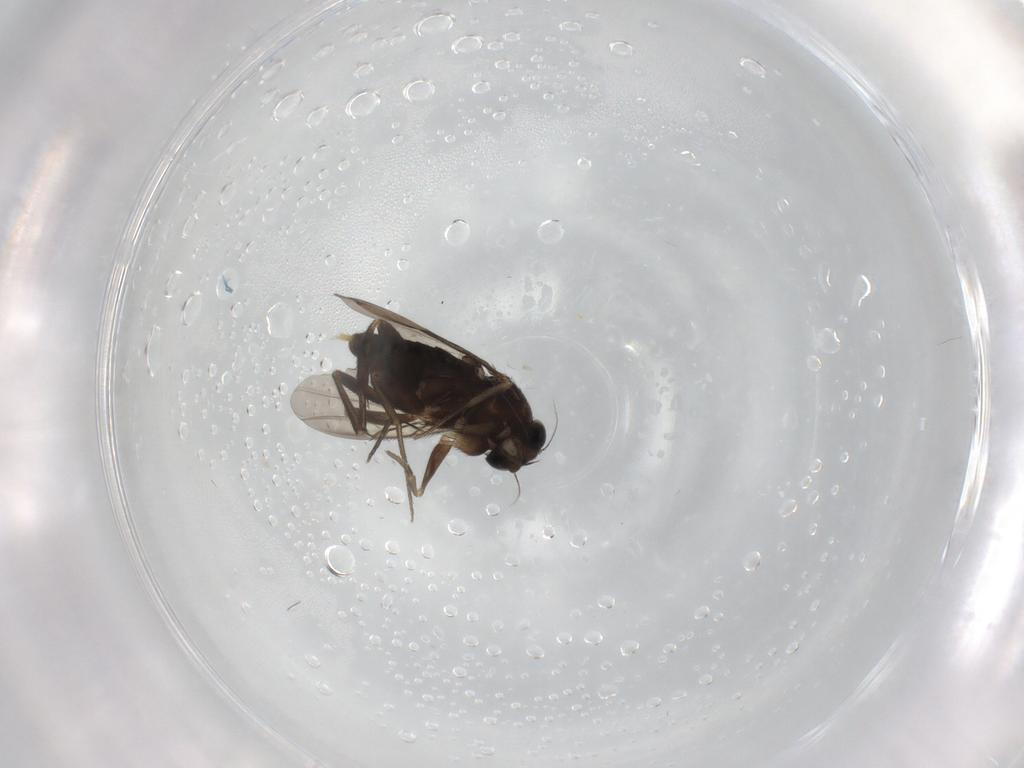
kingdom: Animalia
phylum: Arthropoda
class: Insecta
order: Diptera
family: Phoridae
